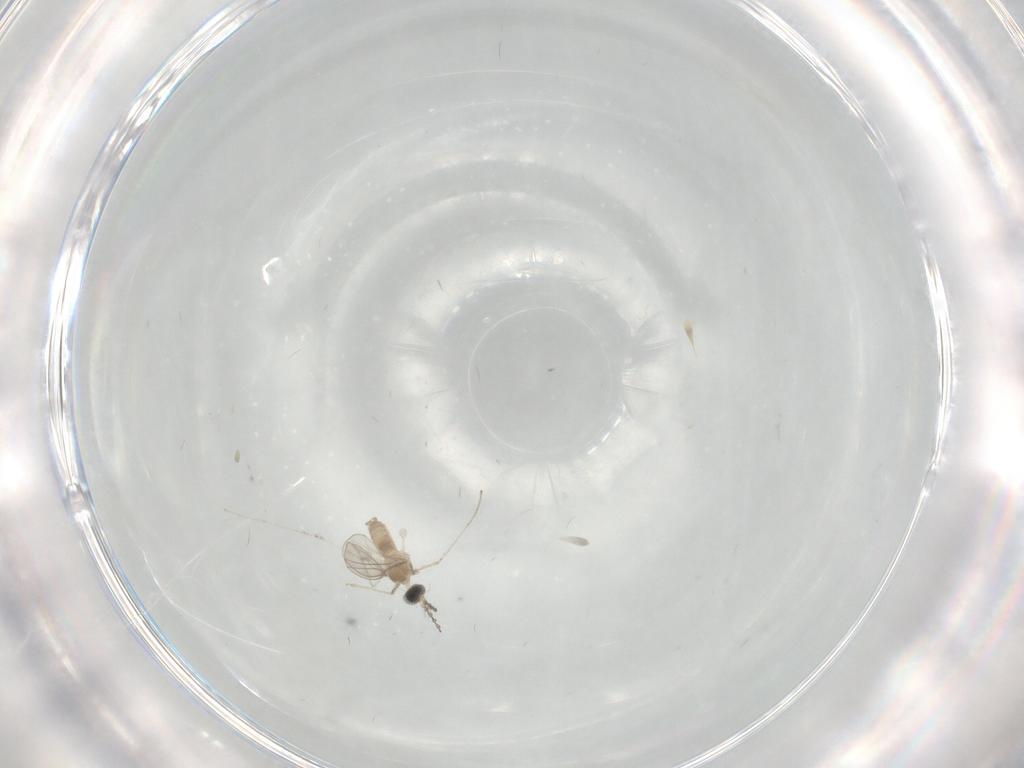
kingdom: Animalia
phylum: Arthropoda
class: Insecta
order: Diptera
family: Cecidomyiidae
